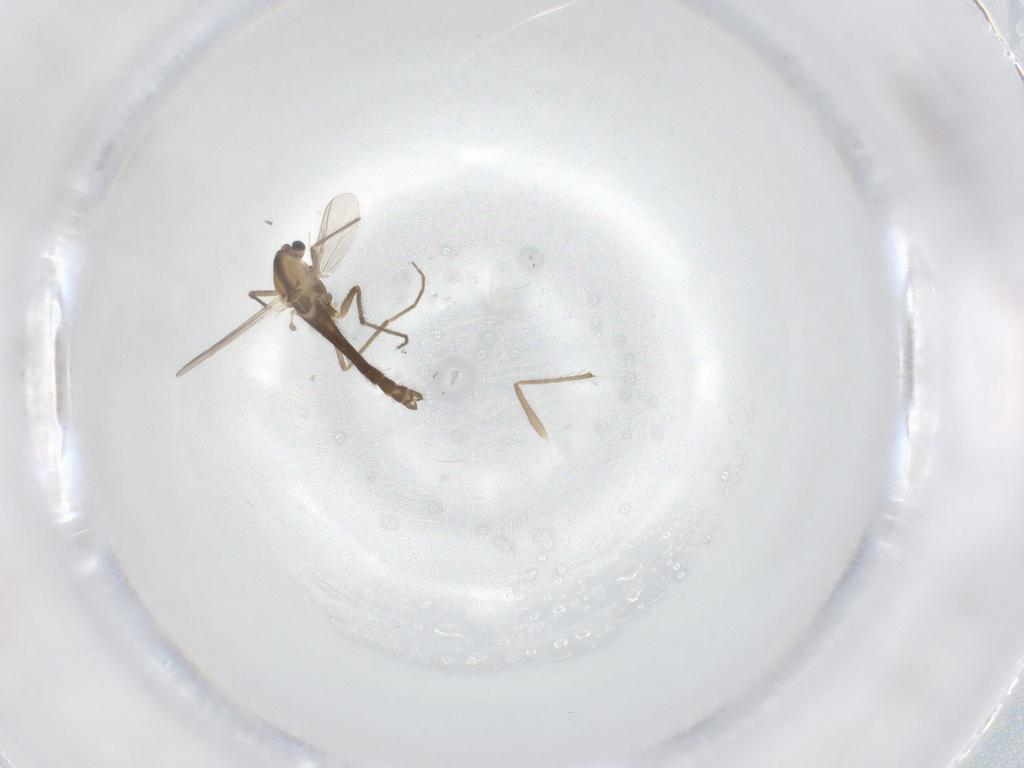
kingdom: Animalia
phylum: Arthropoda
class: Insecta
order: Diptera
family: Chironomidae
